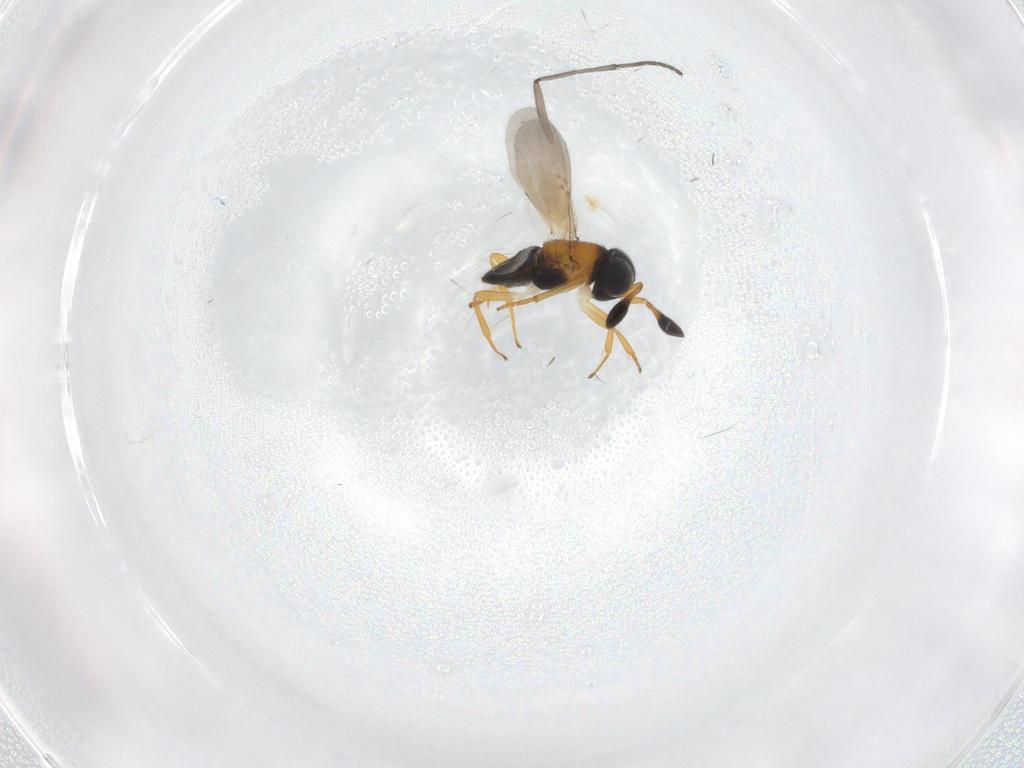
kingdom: Animalia
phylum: Arthropoda
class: Insecta
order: Hymenoptera
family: Encyrtidae
